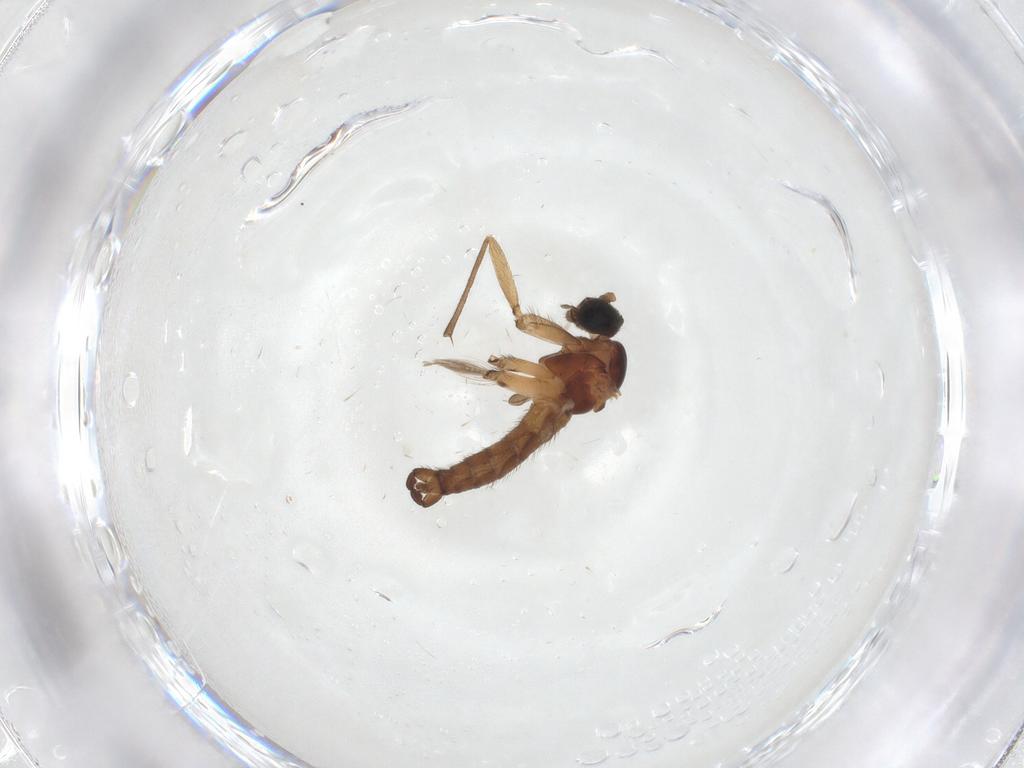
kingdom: Animalia
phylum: Arthropoda
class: Insecta
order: Diptera
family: Sciaridae
